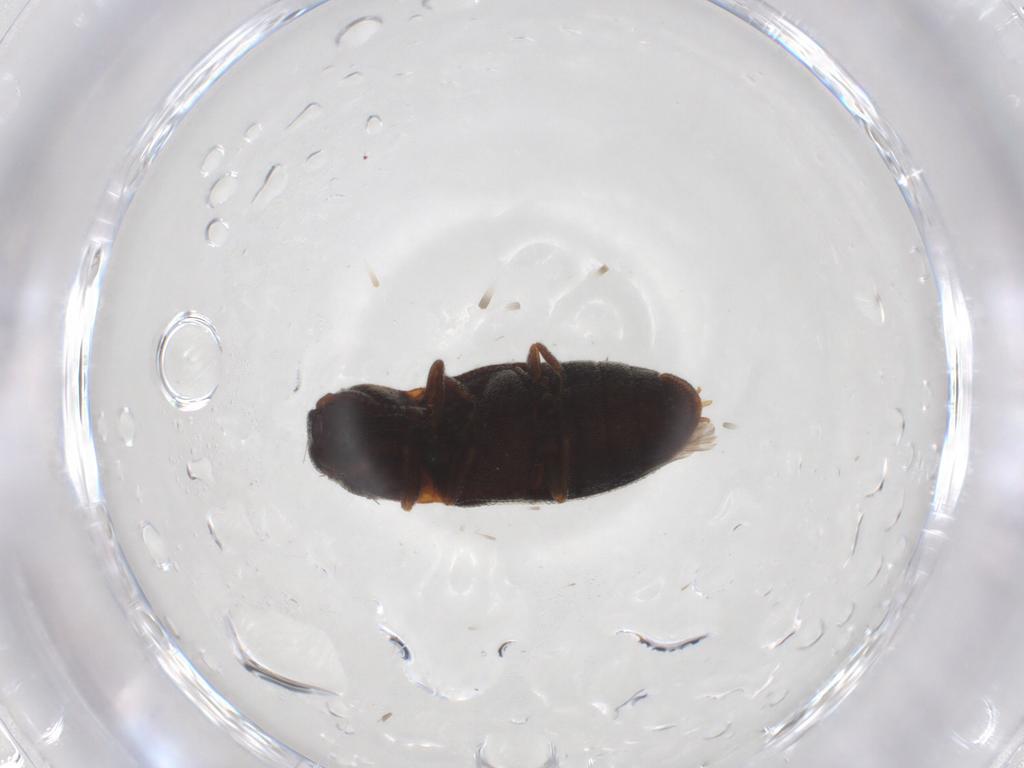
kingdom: Animalia
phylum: Arthropoda
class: Insecta
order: Coleoptera
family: Elateridae
